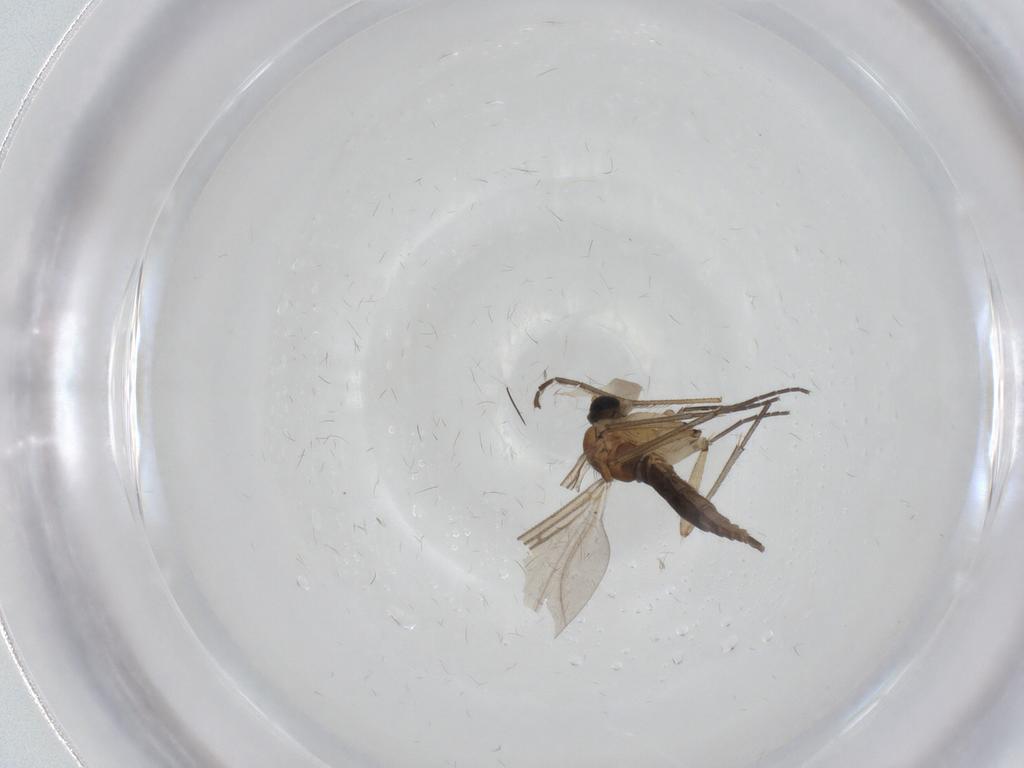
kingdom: Animalia
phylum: Arthropoda
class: Insecta
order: Diptera
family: Sciaridae
